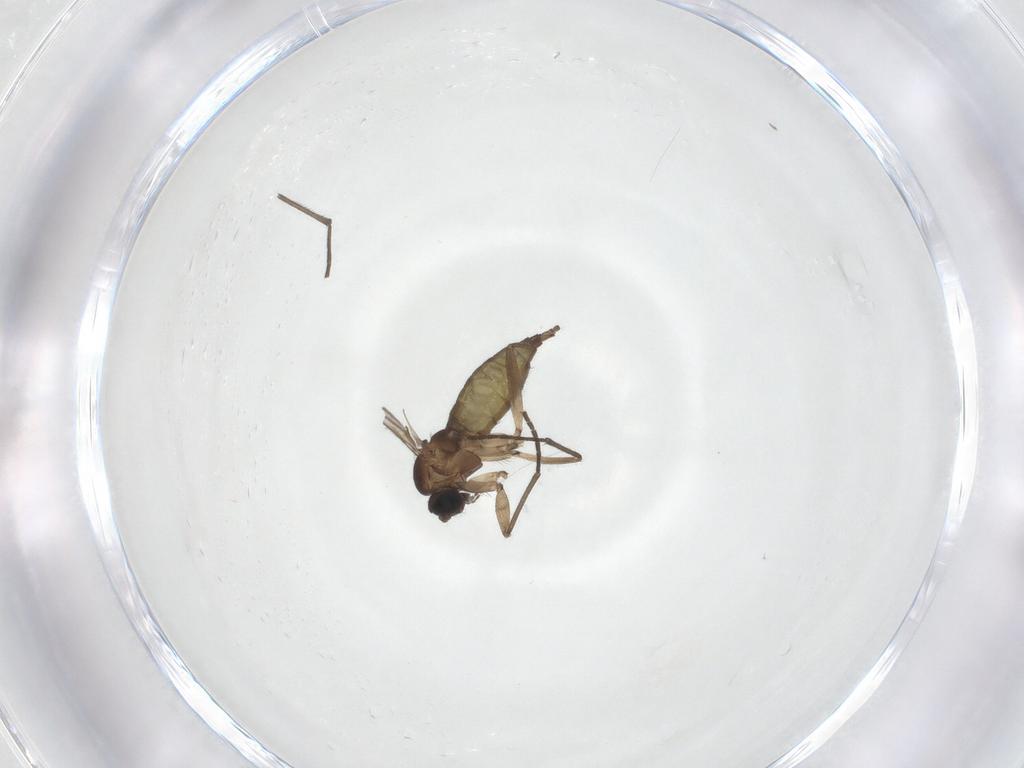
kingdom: Animalia
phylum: Arthropoda
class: Insecta
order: Diptera
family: Sciaridae
